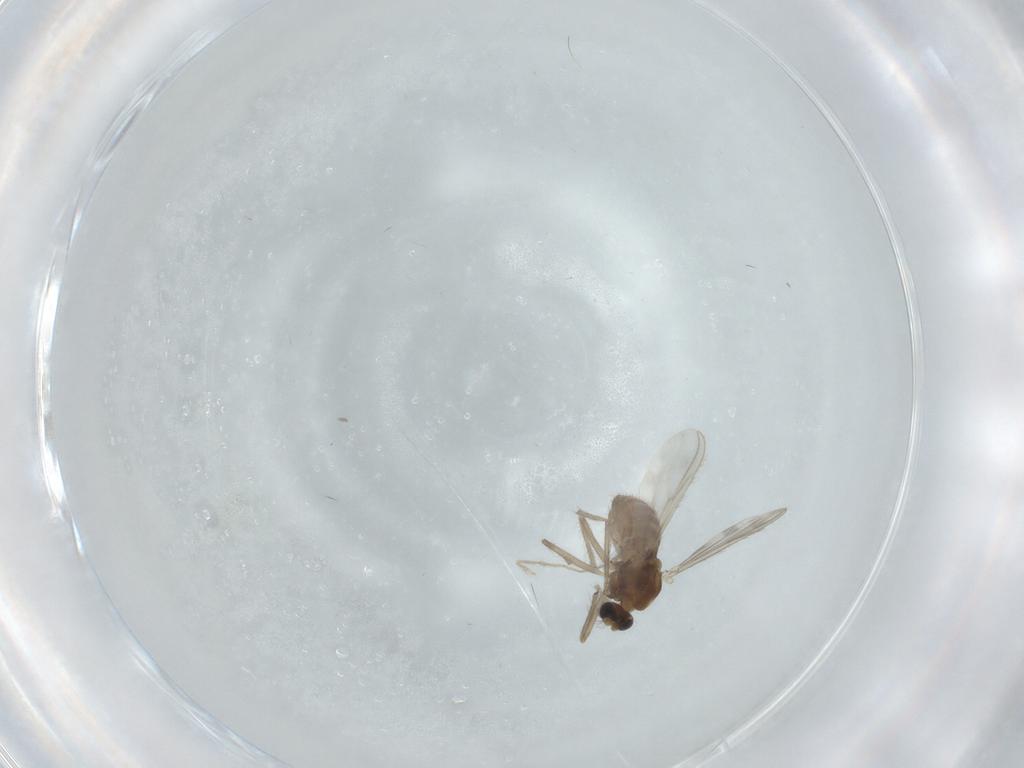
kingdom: Animalia
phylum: Arthropoda
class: Insecta
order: Diptera
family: Chironomidae
